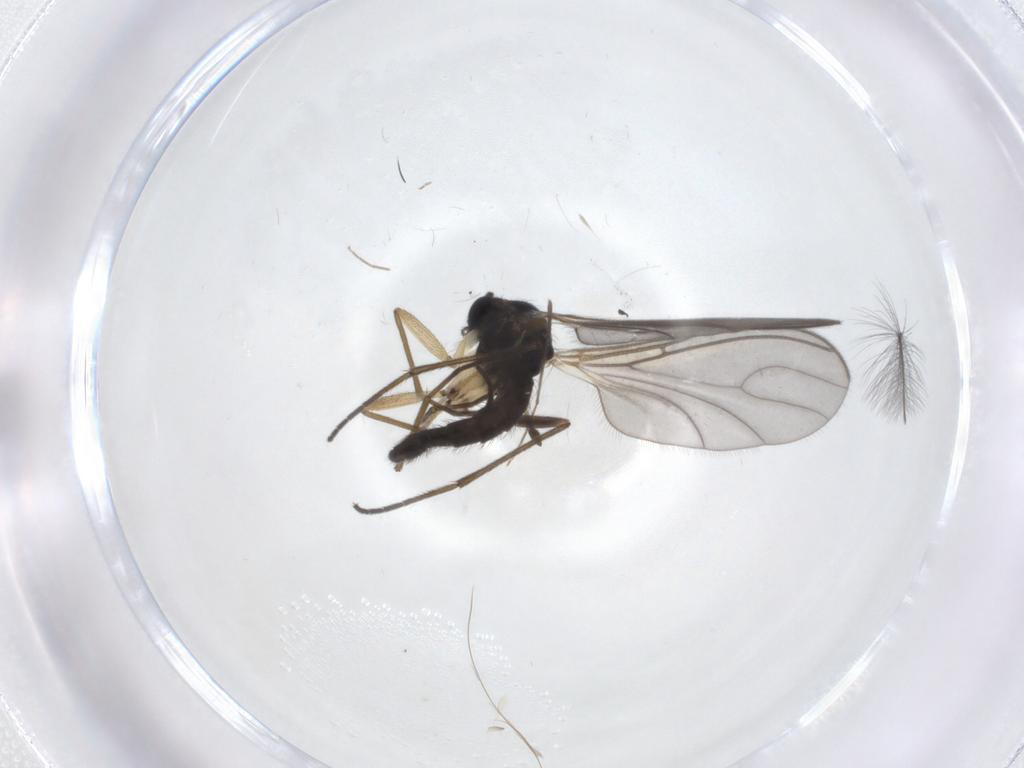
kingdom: Animalia
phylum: Arthropoda
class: Insecta
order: Diptera
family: Sciaridae
